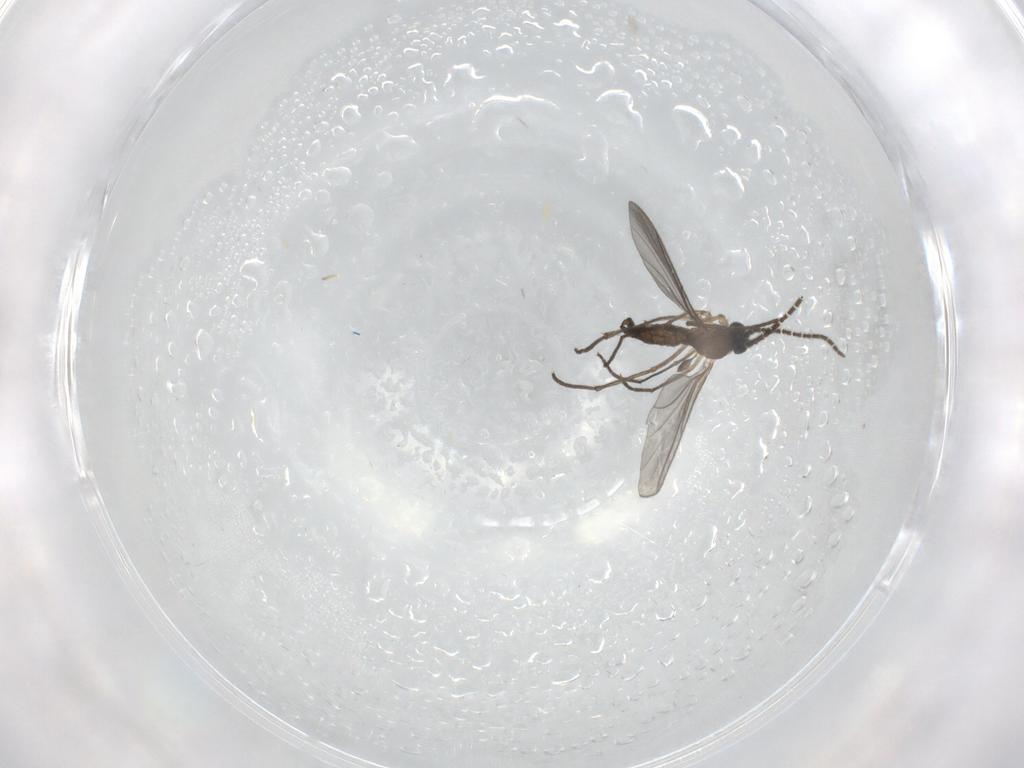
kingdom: Animalia
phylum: Arthropoda
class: Insecta
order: Diptera
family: Sciaridae
